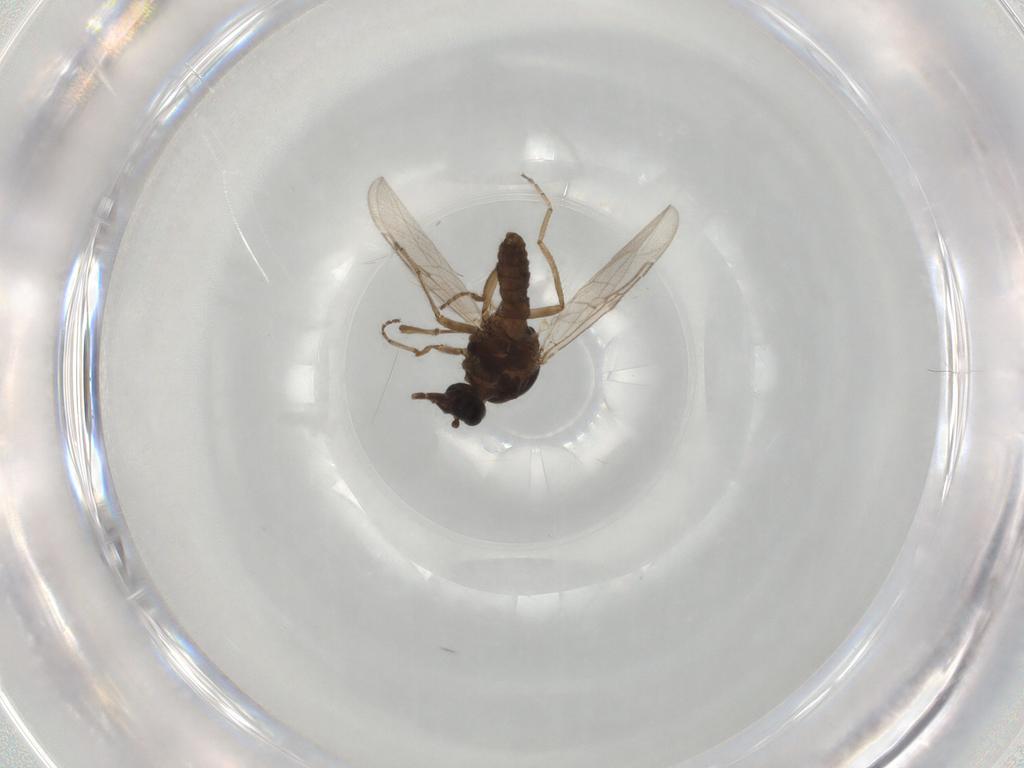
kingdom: Animalia
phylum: Arthropoda
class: Insecta
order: Diptera
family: Muscidae
